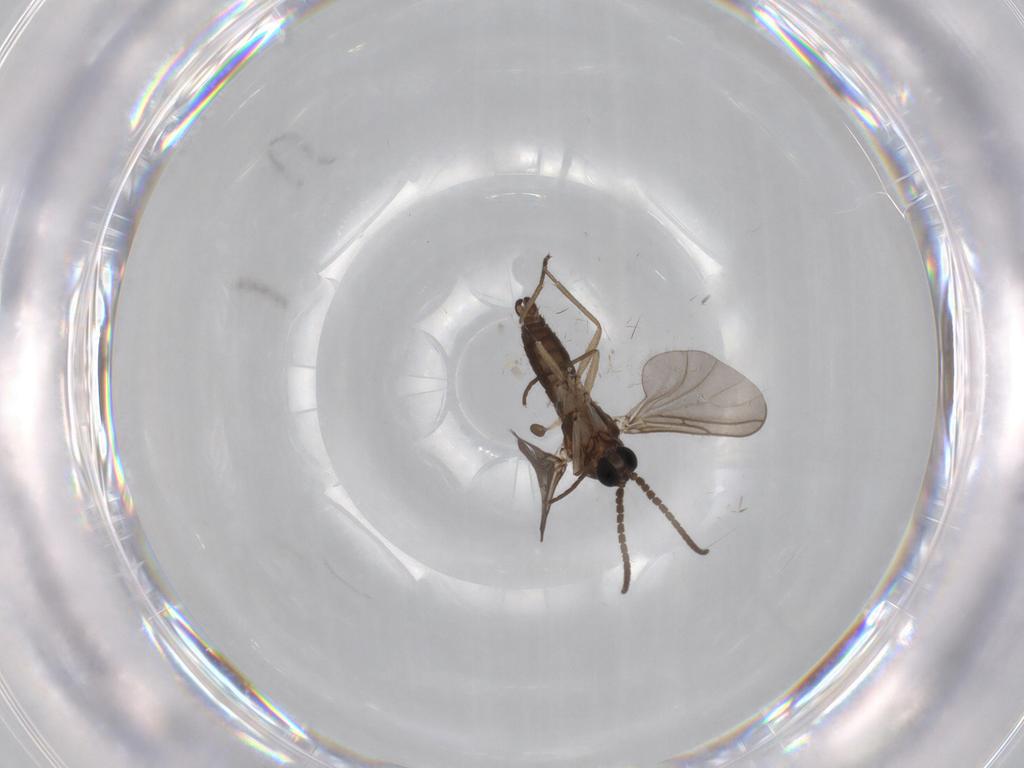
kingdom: Animalia
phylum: Arthropoda
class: Insecta
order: Diptera
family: Sciaridae
